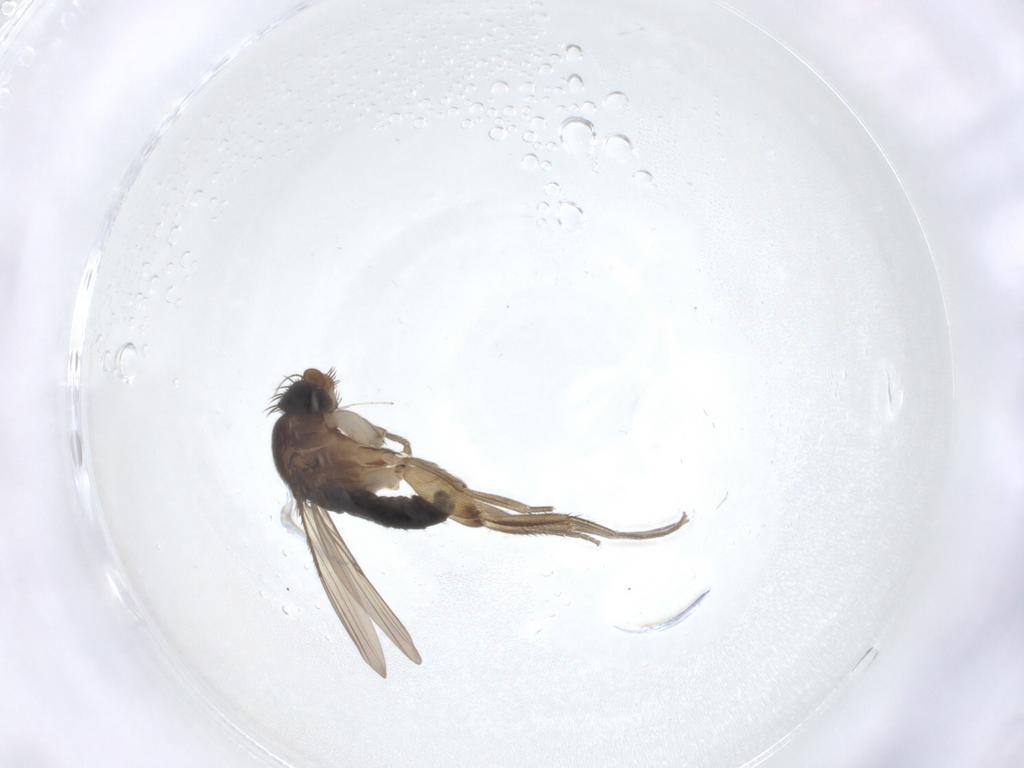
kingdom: Animalia
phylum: Arthropoda
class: Insecta
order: Diptera
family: Phoridae
